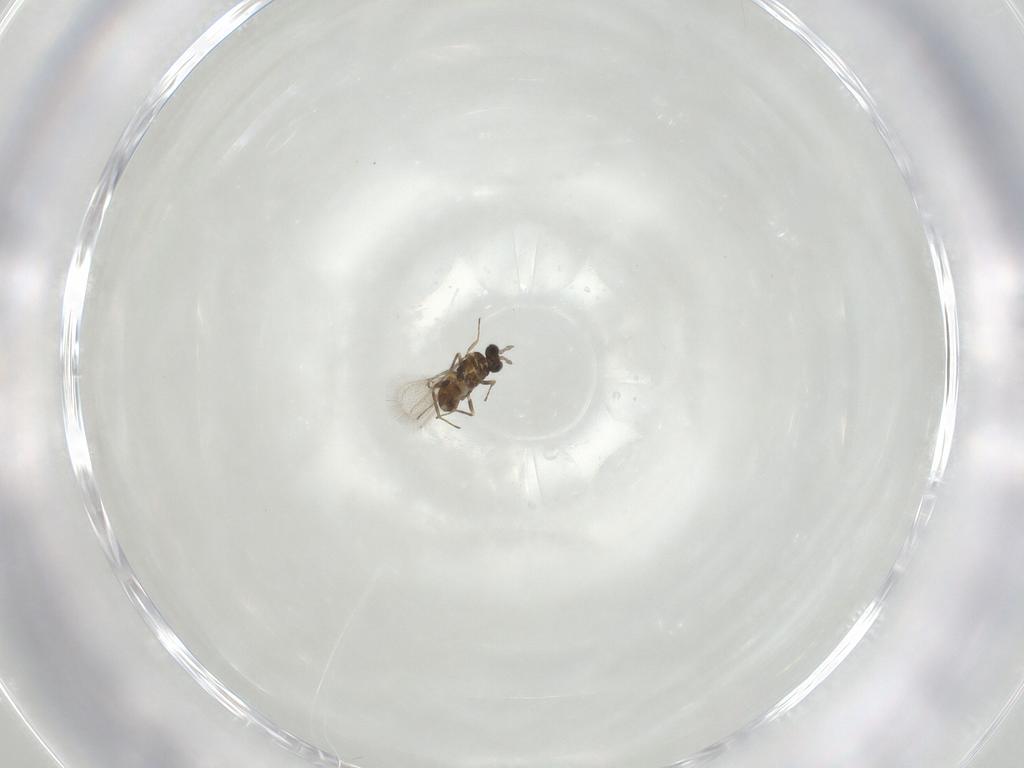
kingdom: Animalia
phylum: Arthropoda
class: Insecta
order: Hymenoptera
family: Trichogrammatidae
